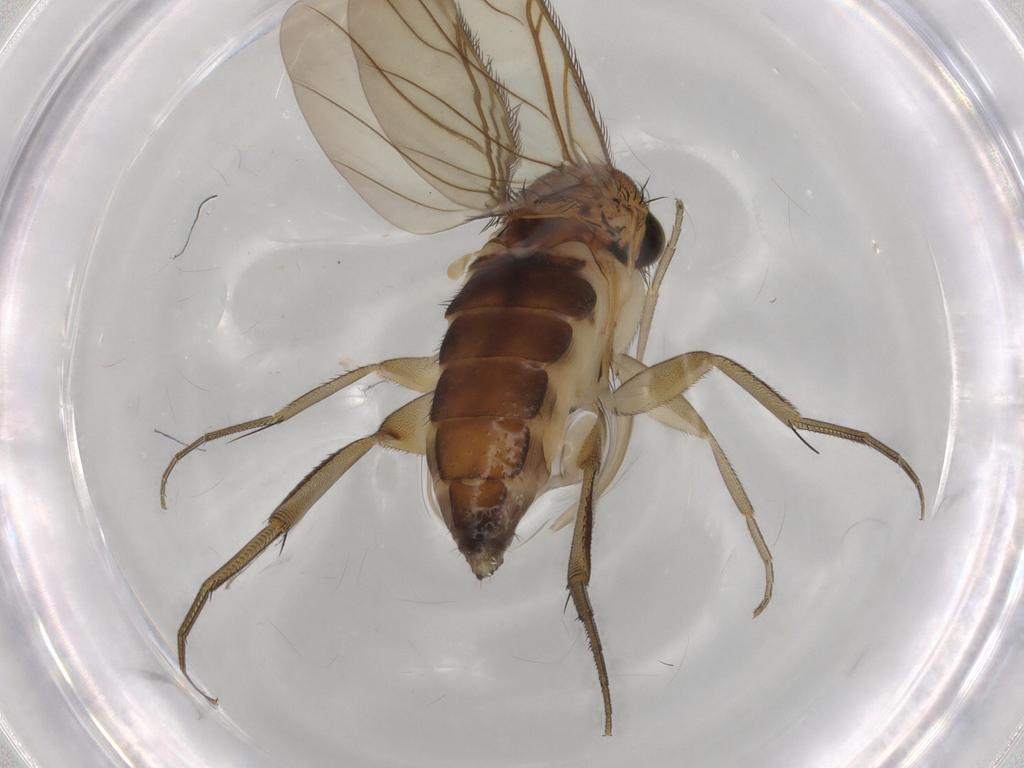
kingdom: Animalia
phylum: Arthropoda
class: Insecta
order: Diptera
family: Phoridae
